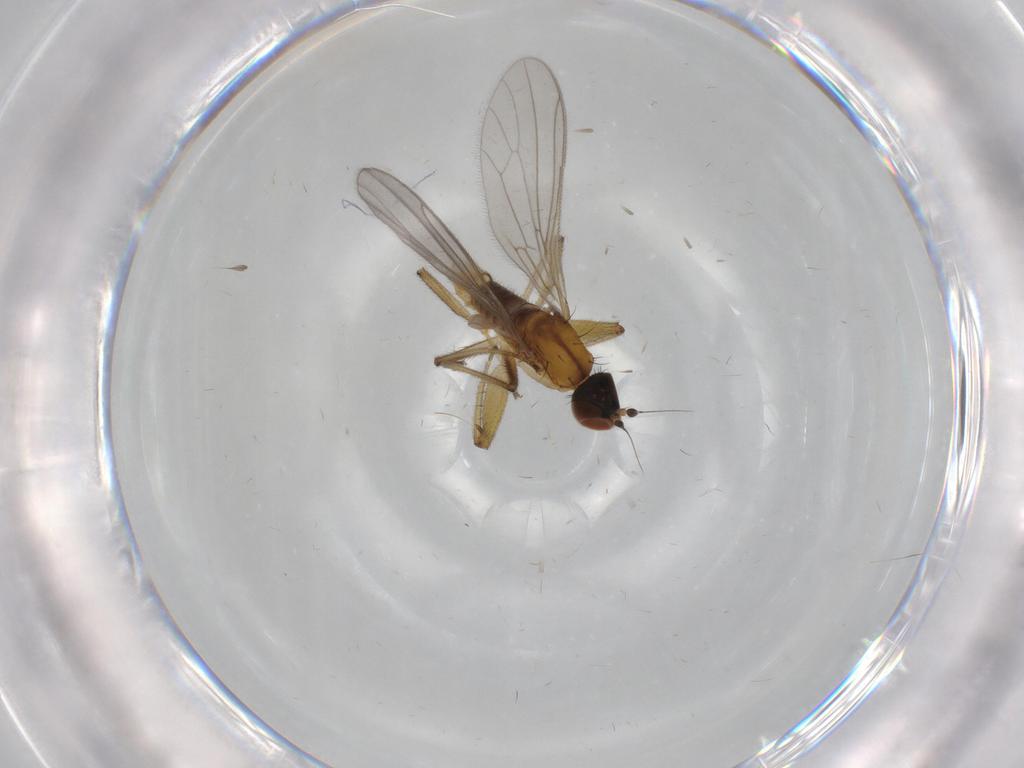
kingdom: Animalia
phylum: Arthropoda
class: Insecta
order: Diptera
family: Empididae
